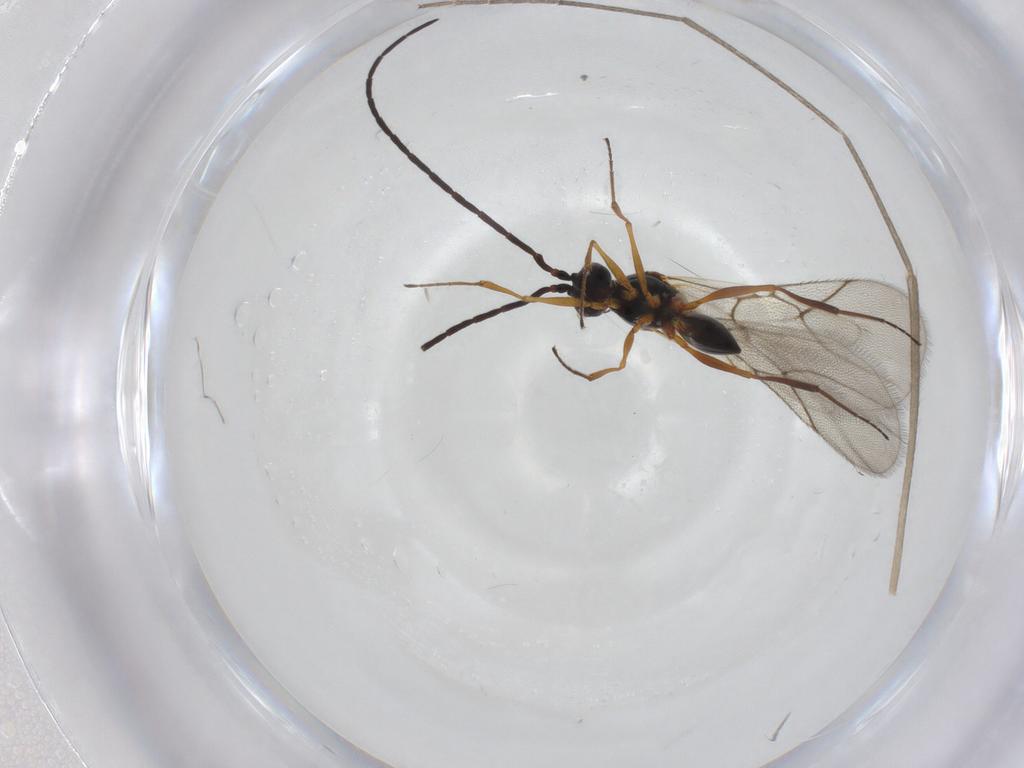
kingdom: Animalia
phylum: Arthropoda
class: Insecta
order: Hymenoptera
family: Figitidae
